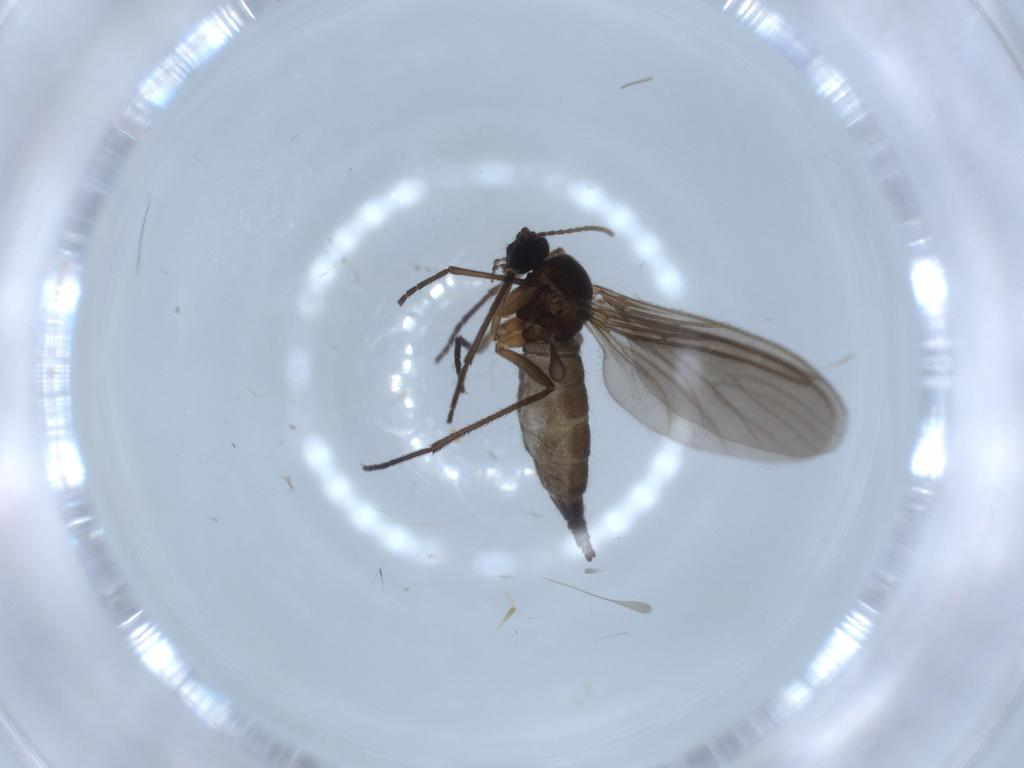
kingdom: Animalia
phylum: Arthropoda
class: Insecta
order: Diptera
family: Sciaridae
